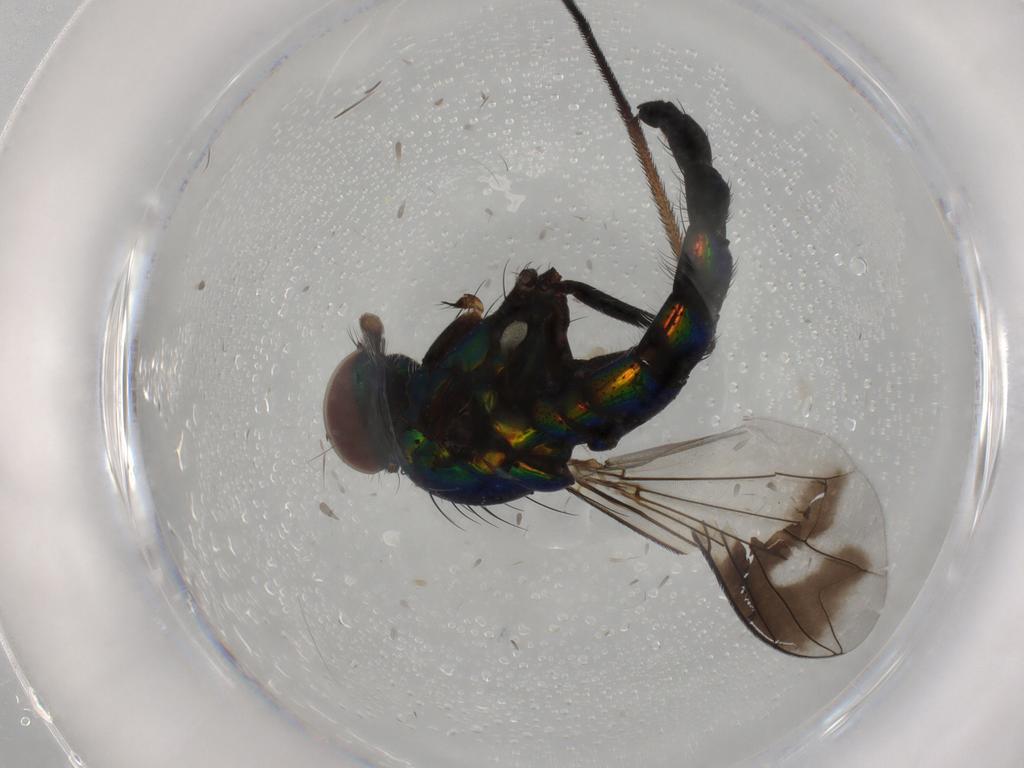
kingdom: Animalia
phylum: Arthropoda
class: Insecta
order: Diptera
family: Dolichopodidae
